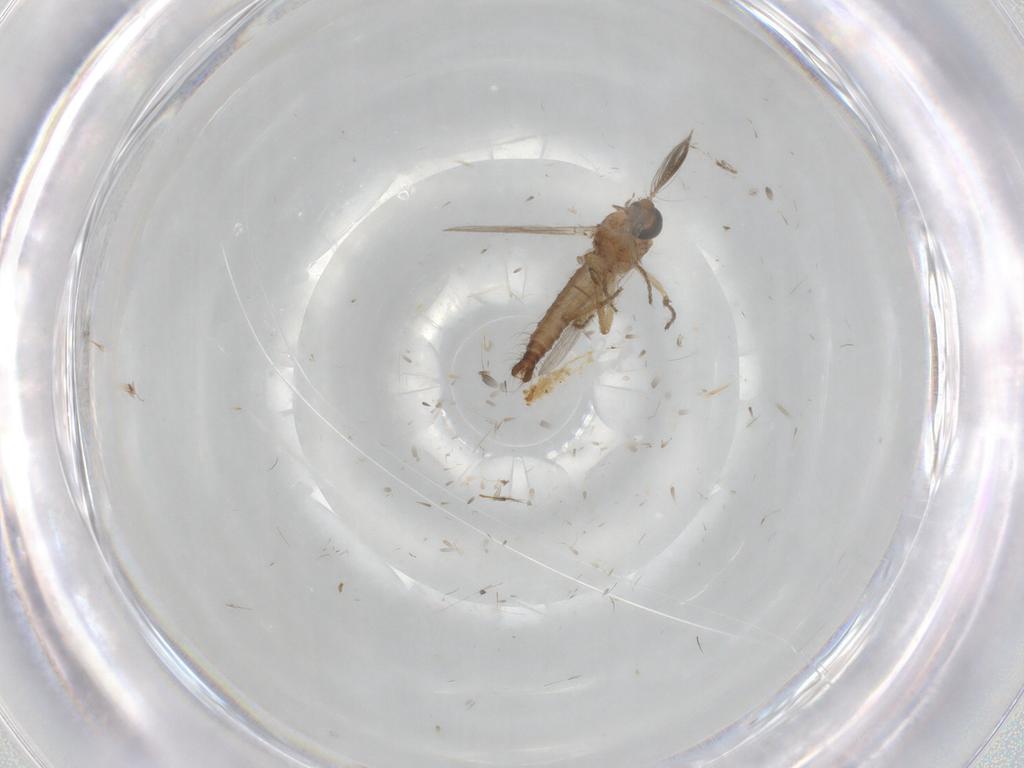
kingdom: Animalia
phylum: Arthropoda
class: Insecta
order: Diptera
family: Ceratopogonidae
